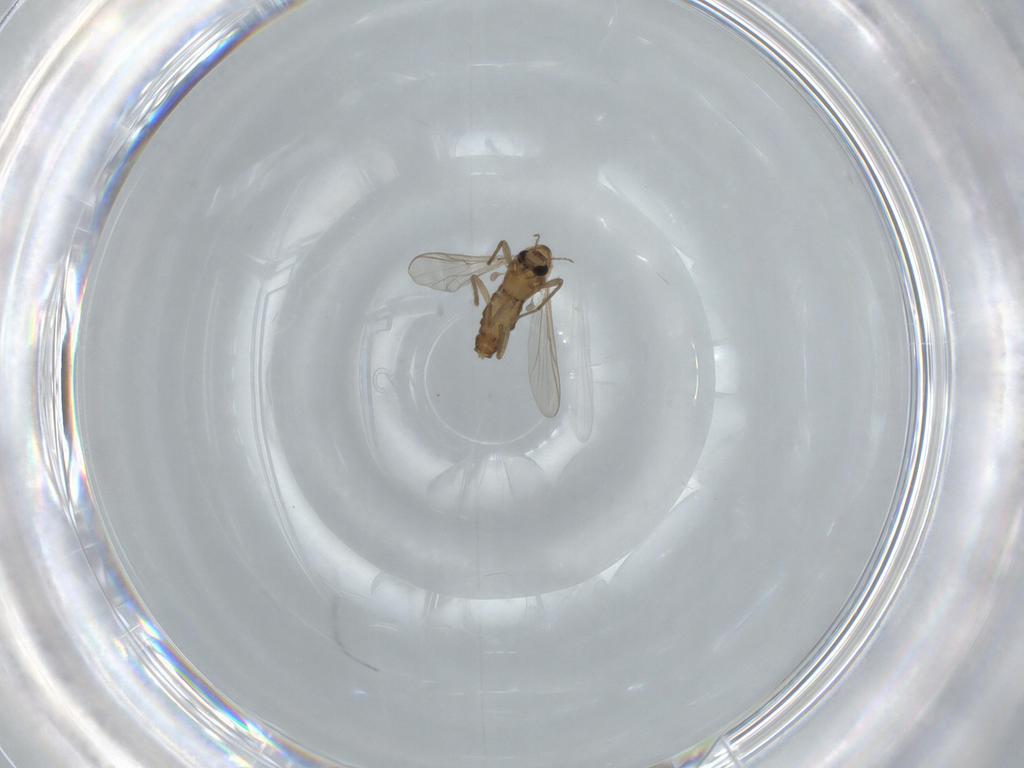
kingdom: Animalia
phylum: Arthropoda
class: Insecta
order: Diptera
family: Chironomidae
